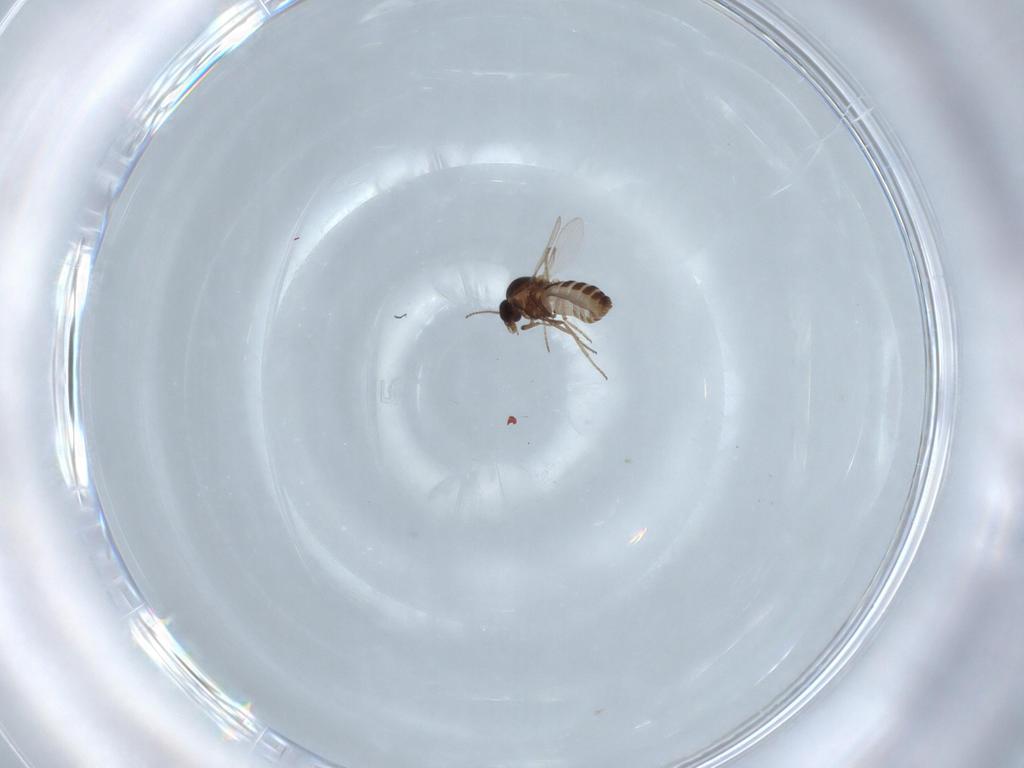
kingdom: Animalia
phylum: Arthropoda
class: Insecta
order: Diptera
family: Ceratopogonidae
